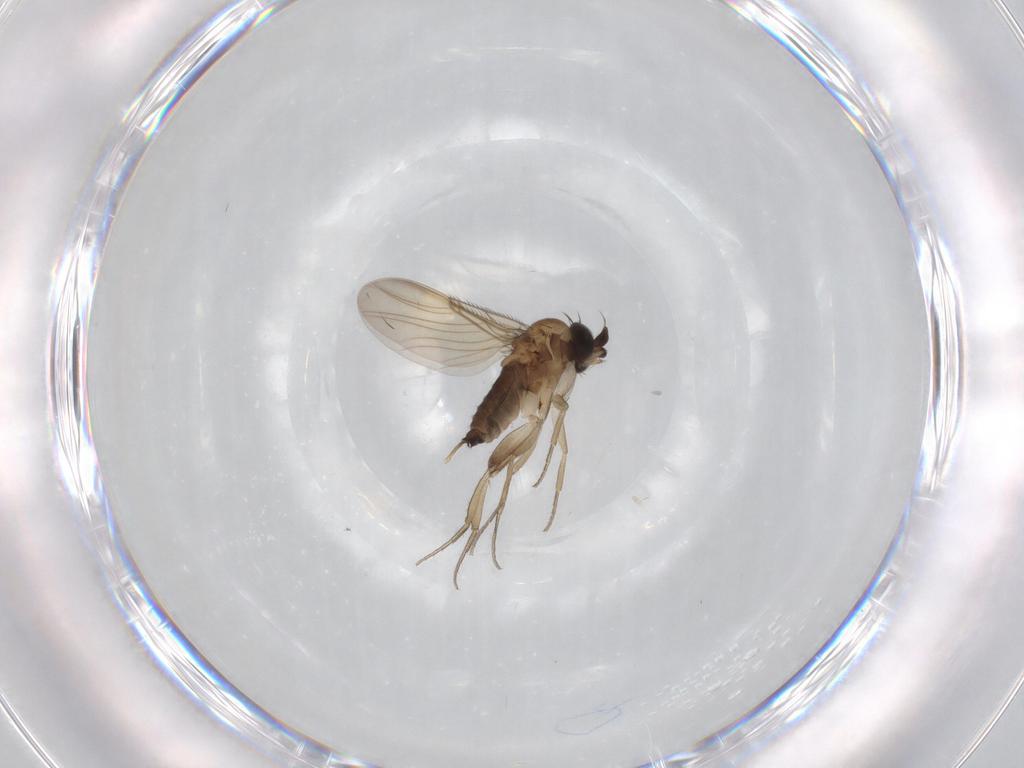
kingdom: Animalia
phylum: Arthropoda
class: Insecta
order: Diptera
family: Phoridae
